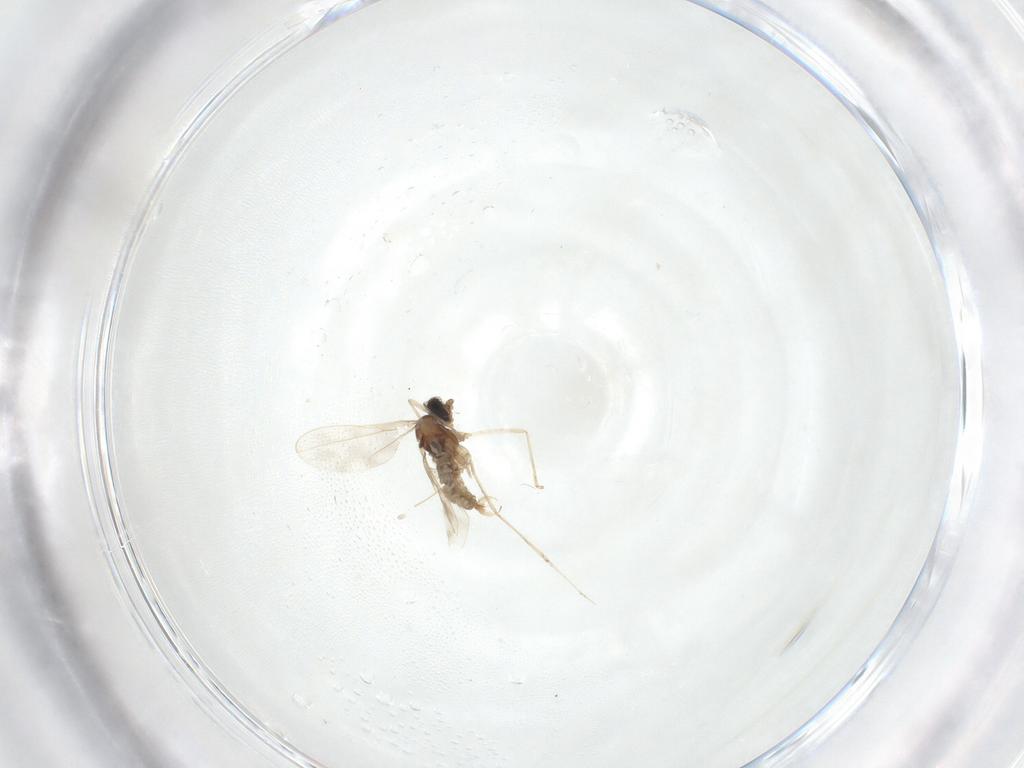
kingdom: Animalia
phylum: Arthropoda
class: Insecta
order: Diptera
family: Cecidomyiidae
